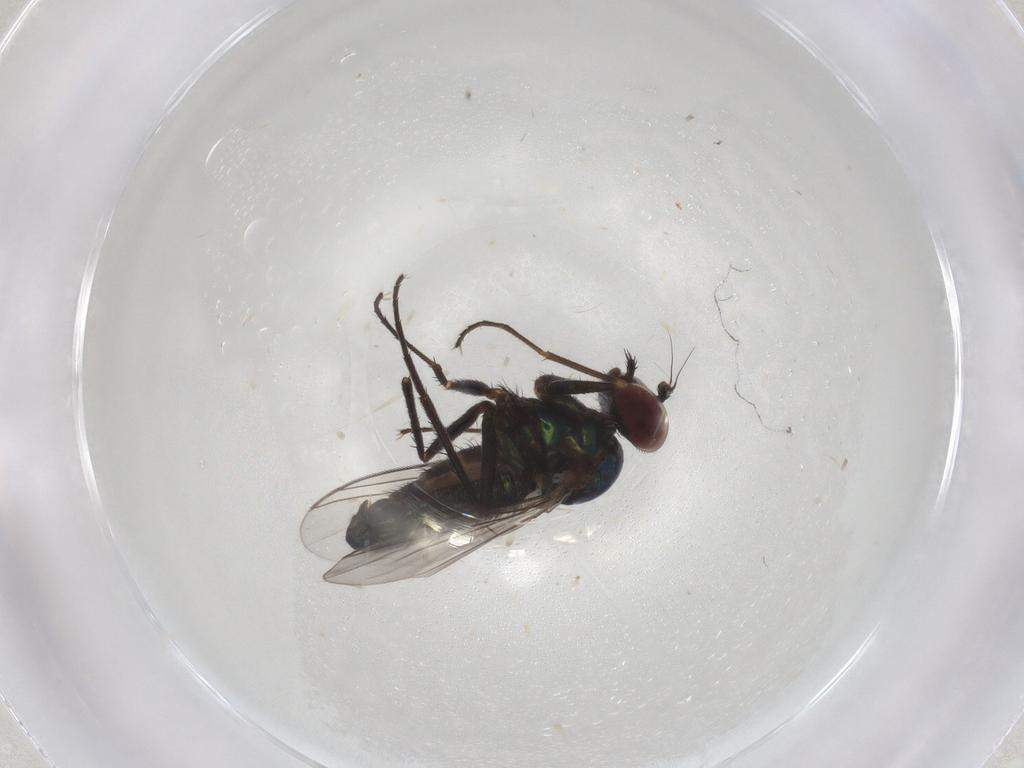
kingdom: Animalia
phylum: Arthropoda
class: Insecta
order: Diptera
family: Dolichopodidae
